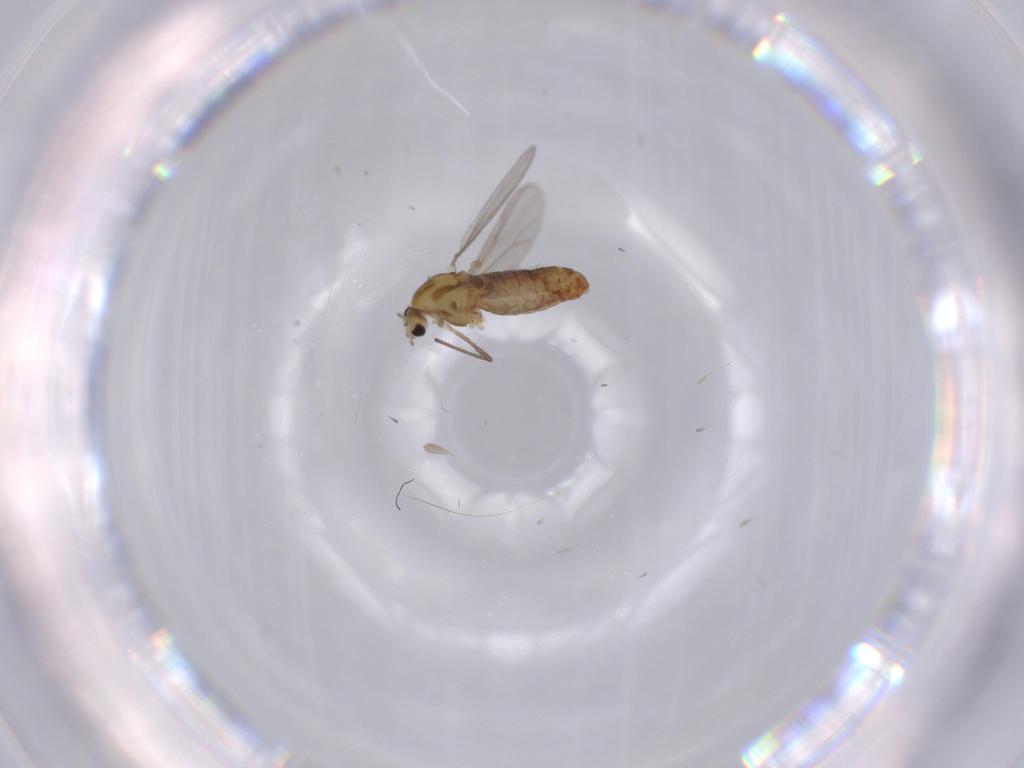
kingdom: Animalia
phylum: Arthropoda
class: Insecta
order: Diptera
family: Chironomidae
